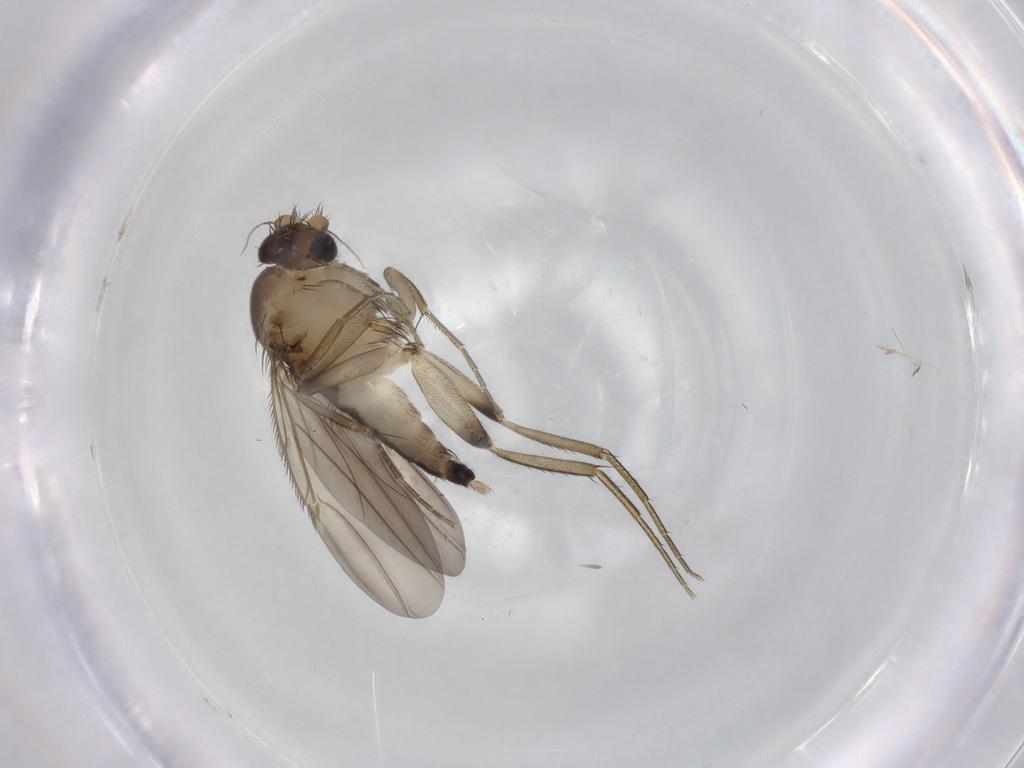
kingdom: Animalia
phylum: Arthropoda
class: Insecta
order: Diptera
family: Phoridae
